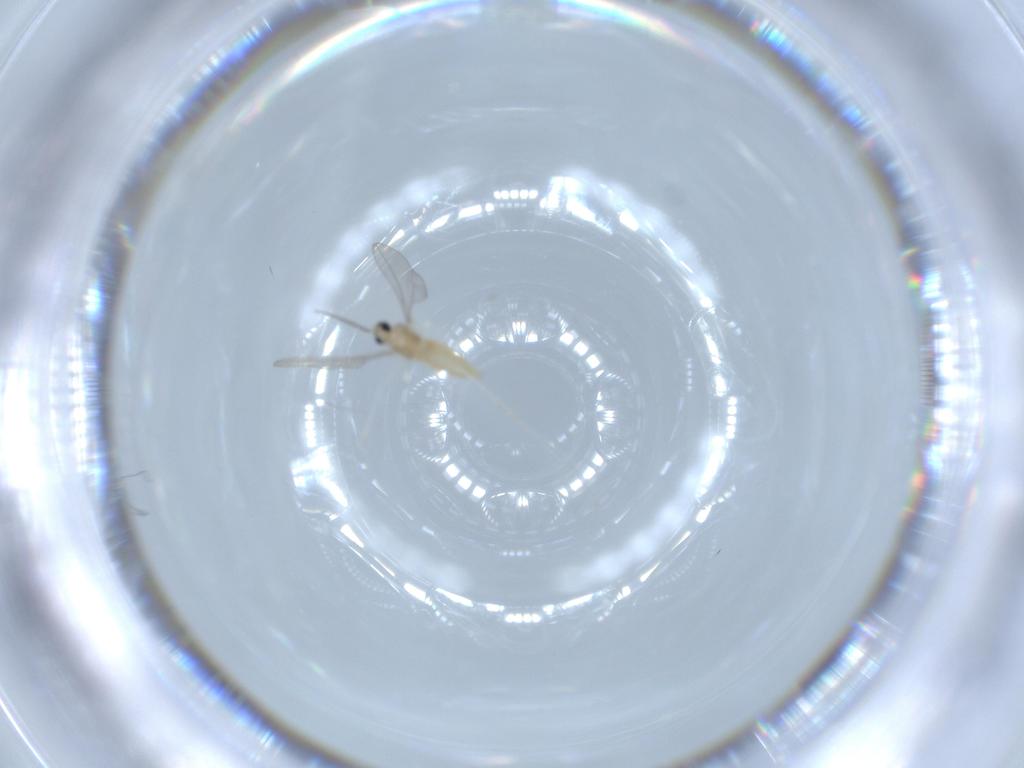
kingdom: Animalia
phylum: Arthropoda
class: Insecta
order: Diptera
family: Cecidomyiidae
